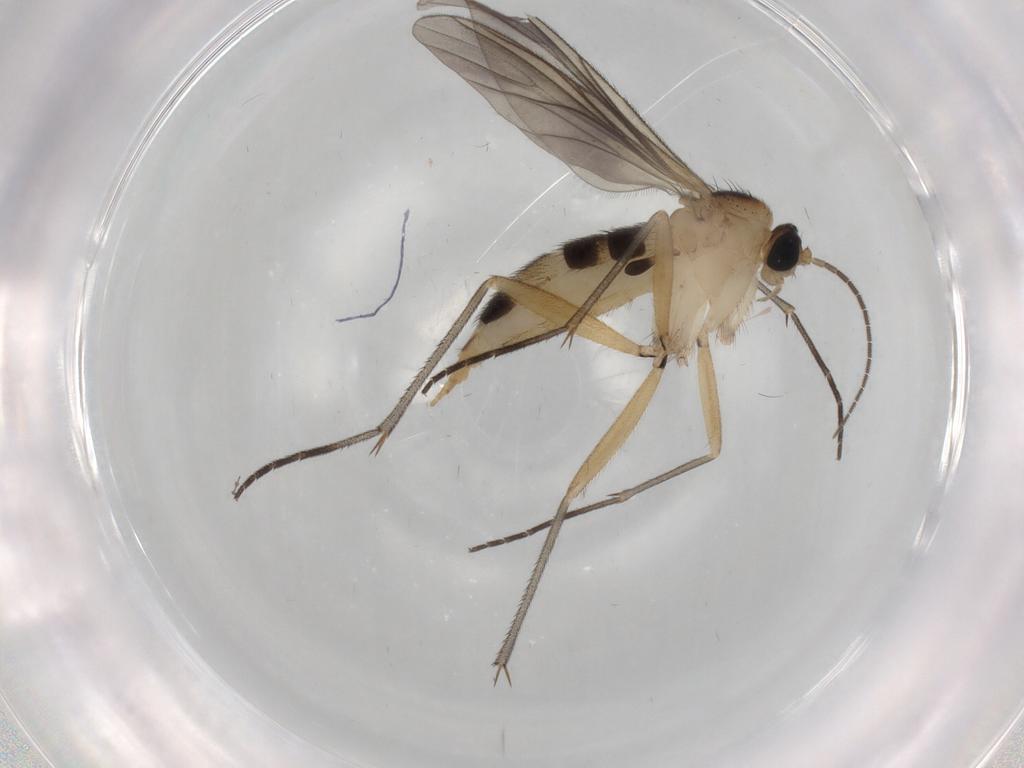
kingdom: Animalia
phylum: Arthropoda
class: Insecta
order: Diptera
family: Sciaridae
